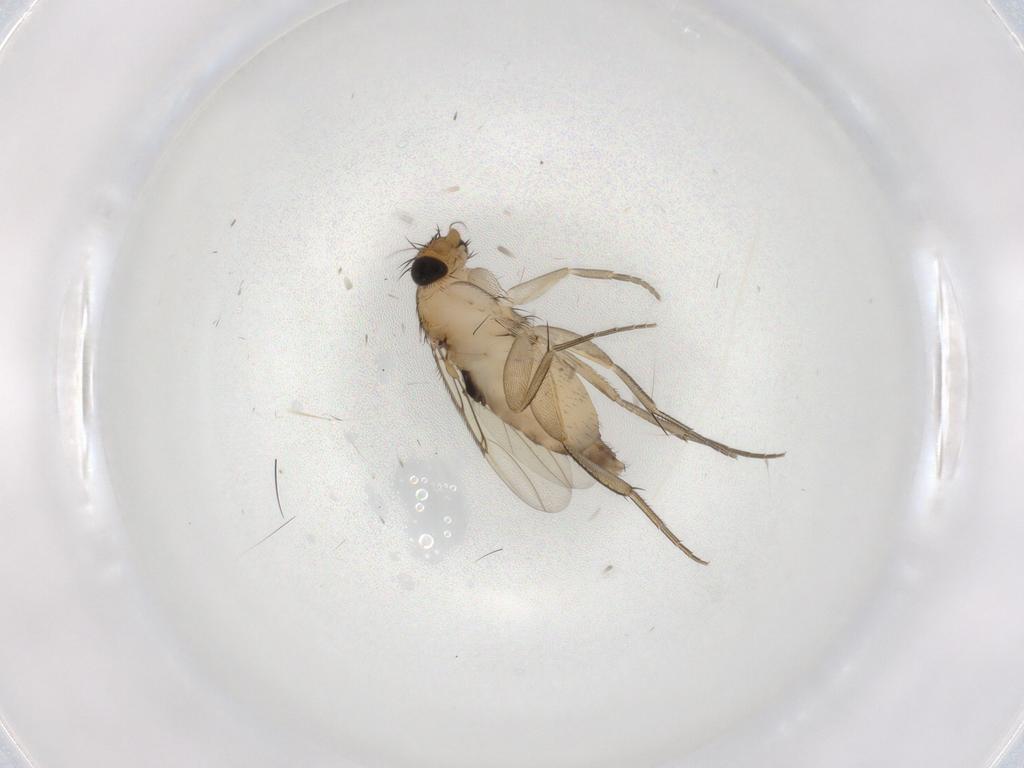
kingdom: Animalia
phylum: Arthropoda
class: Insecta
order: Diptera
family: Phoridae
